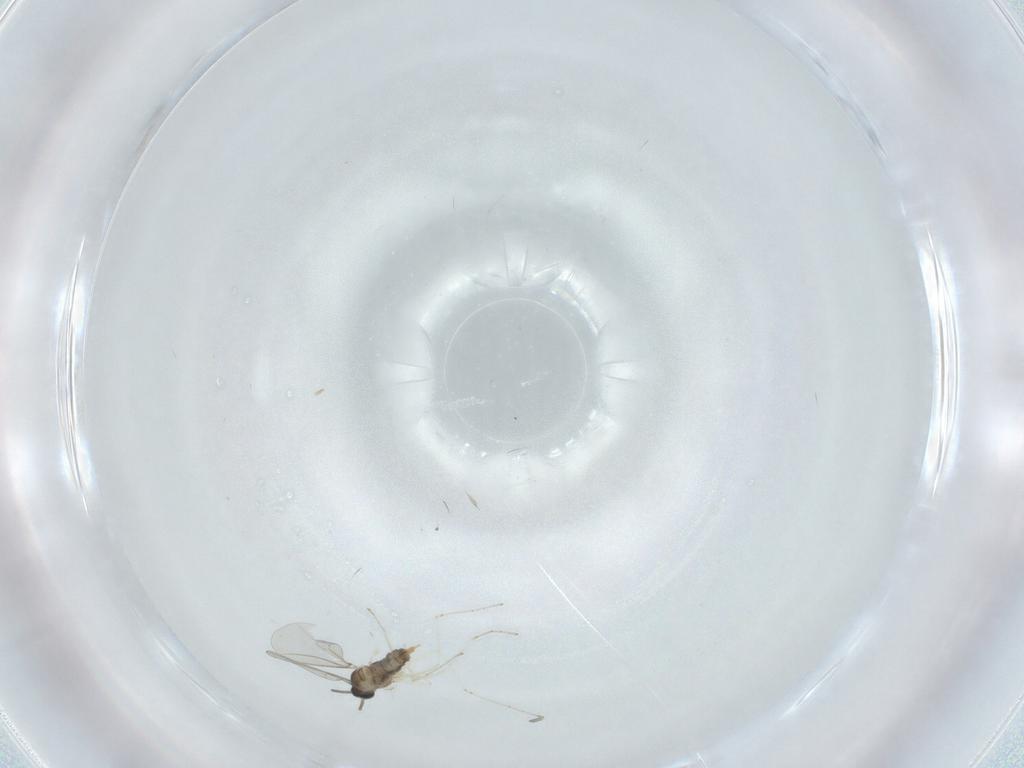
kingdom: Animalia
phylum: Arthropoda
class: Insecta
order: Diptera
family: Cecidomyiidae
